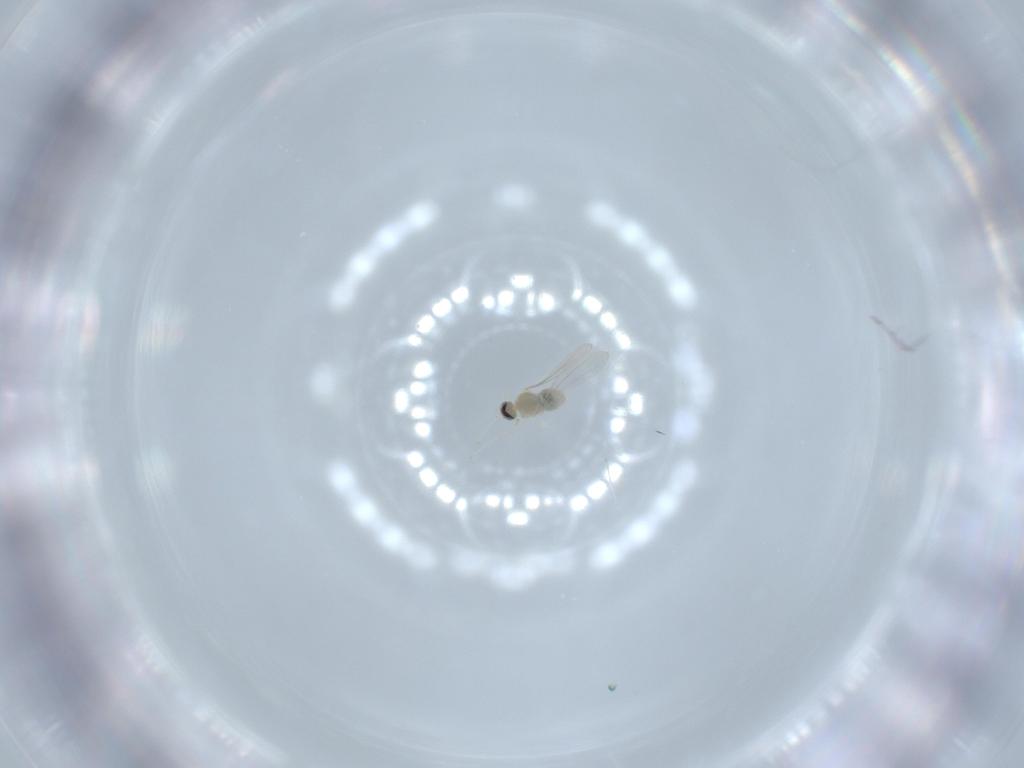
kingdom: Animalia
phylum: Arthropoda
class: Insecta
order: Diptera
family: Cecidomyiidae
